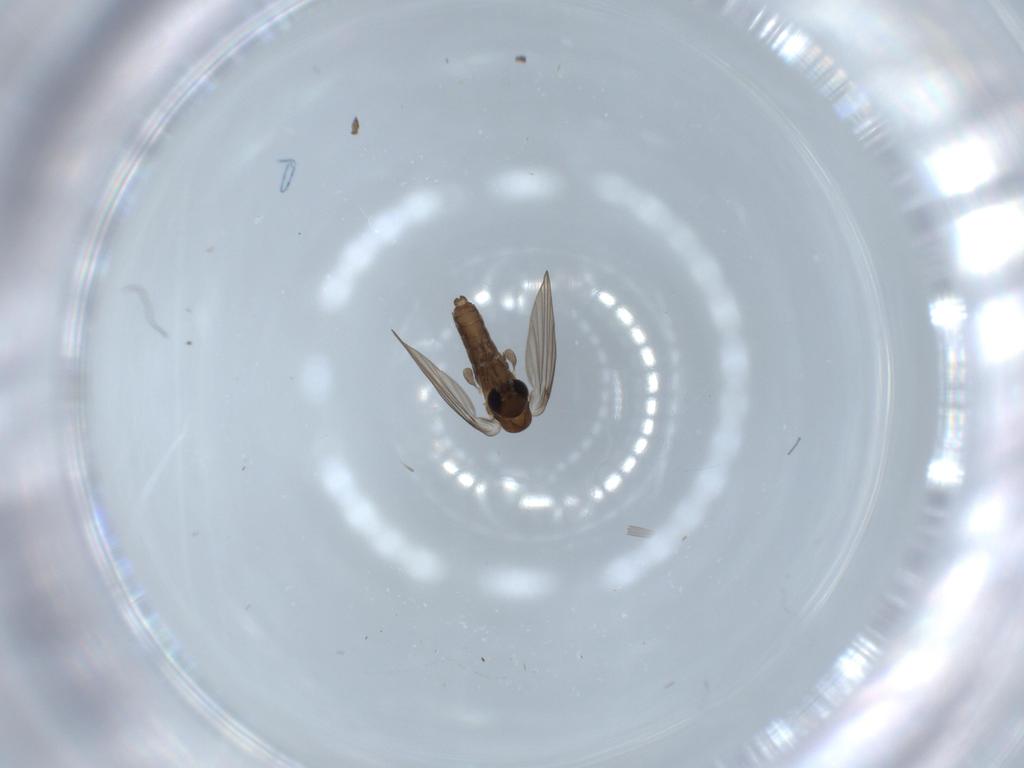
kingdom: Animalia
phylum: Arthropoda
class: Insecta
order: Diptera
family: Psychodidae
